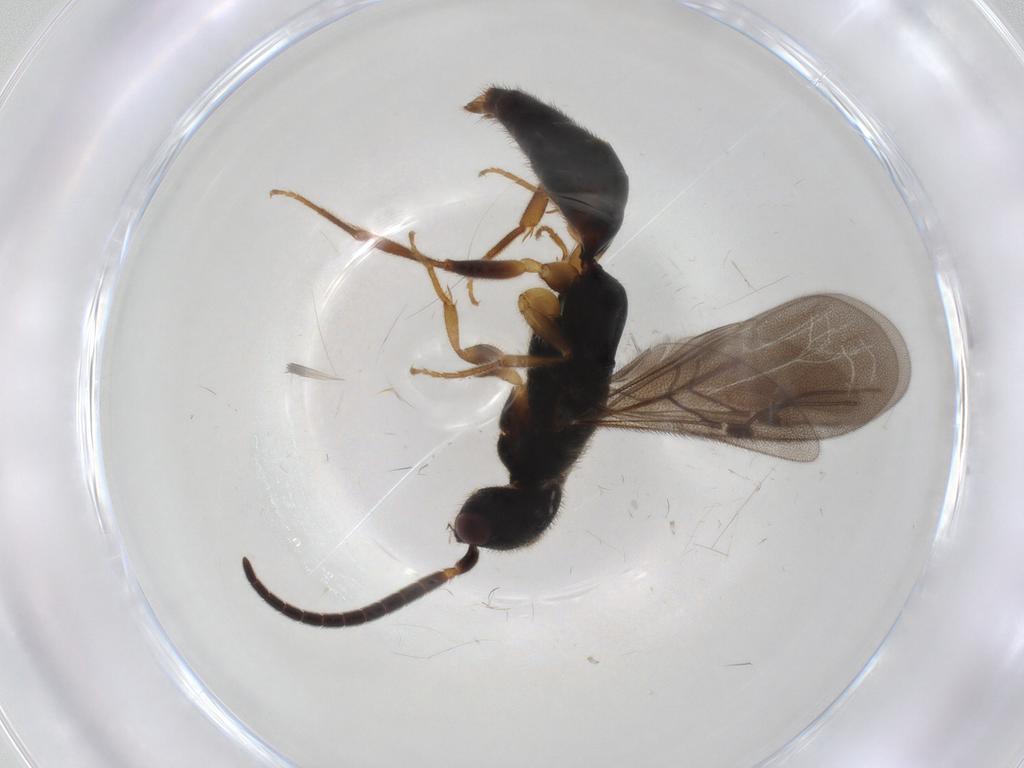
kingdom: Animalia
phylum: Arthropoda
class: Insecta
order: Hymenoptera
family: Bethylidae
